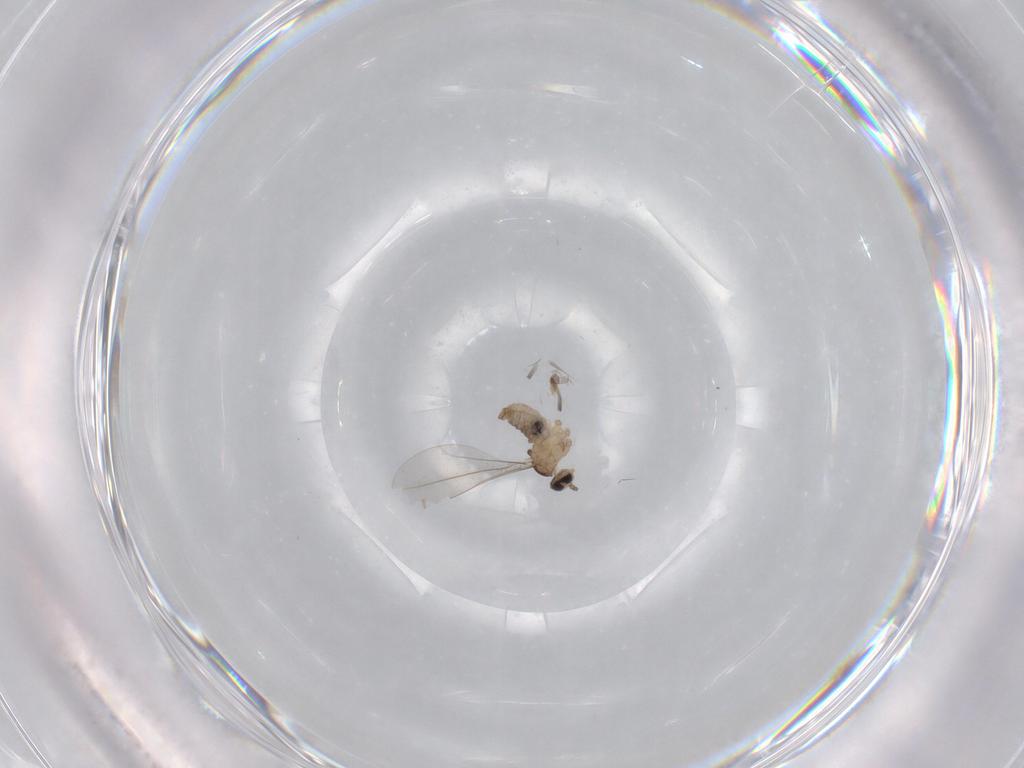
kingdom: Animalia
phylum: Arthropoda
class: Insecta
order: Diptera
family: Cecidomyiidae
